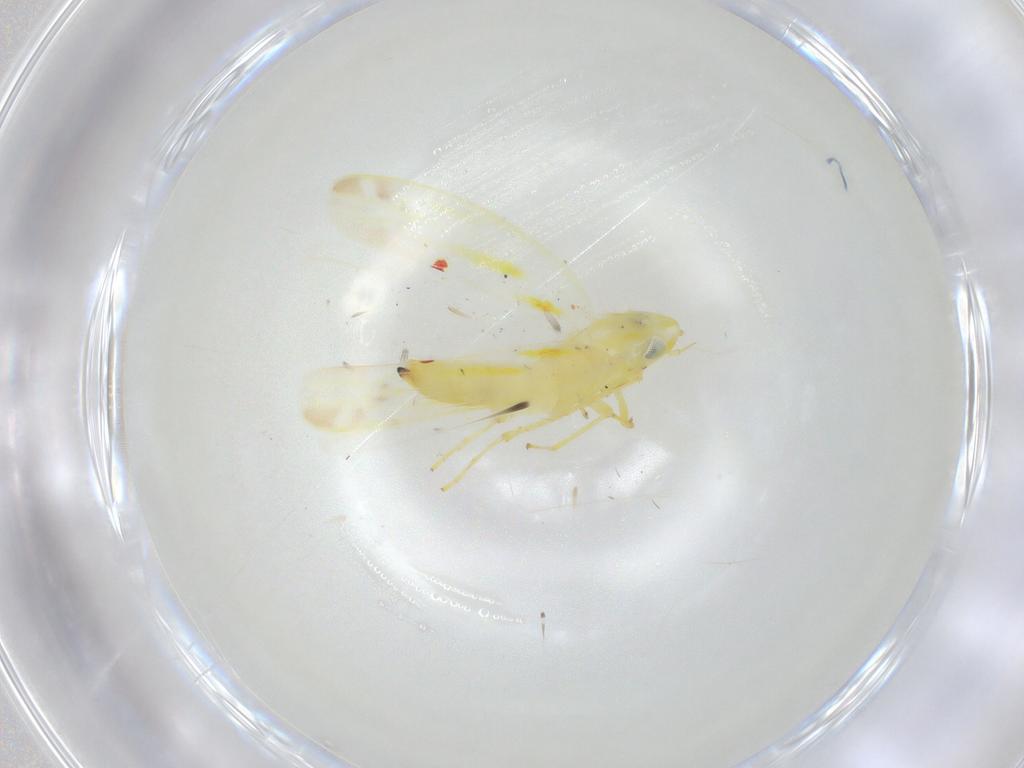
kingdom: Animalia
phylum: Arthropoda
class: Insecta
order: Hemiptera
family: Cicadellidae
